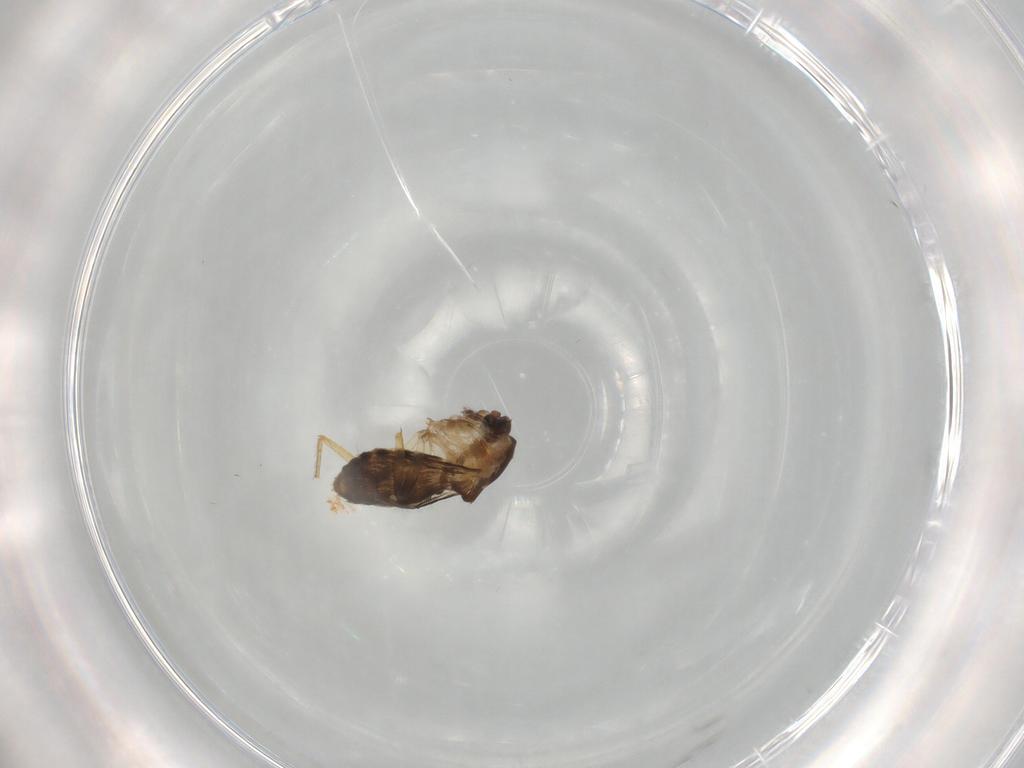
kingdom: Animalia
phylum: Arthropoda
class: Insecta
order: Diptera
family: Ceratopogonidae
